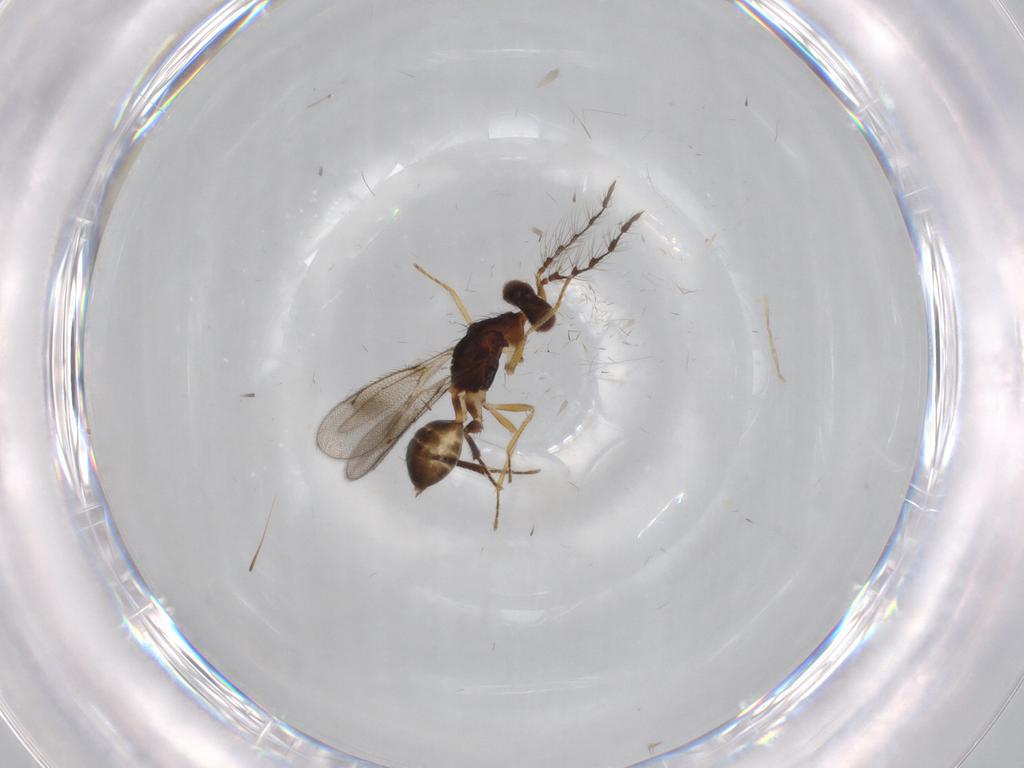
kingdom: Animalia
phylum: Arthropoda
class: Insecta
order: Hymenoptera
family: Eulophidae
